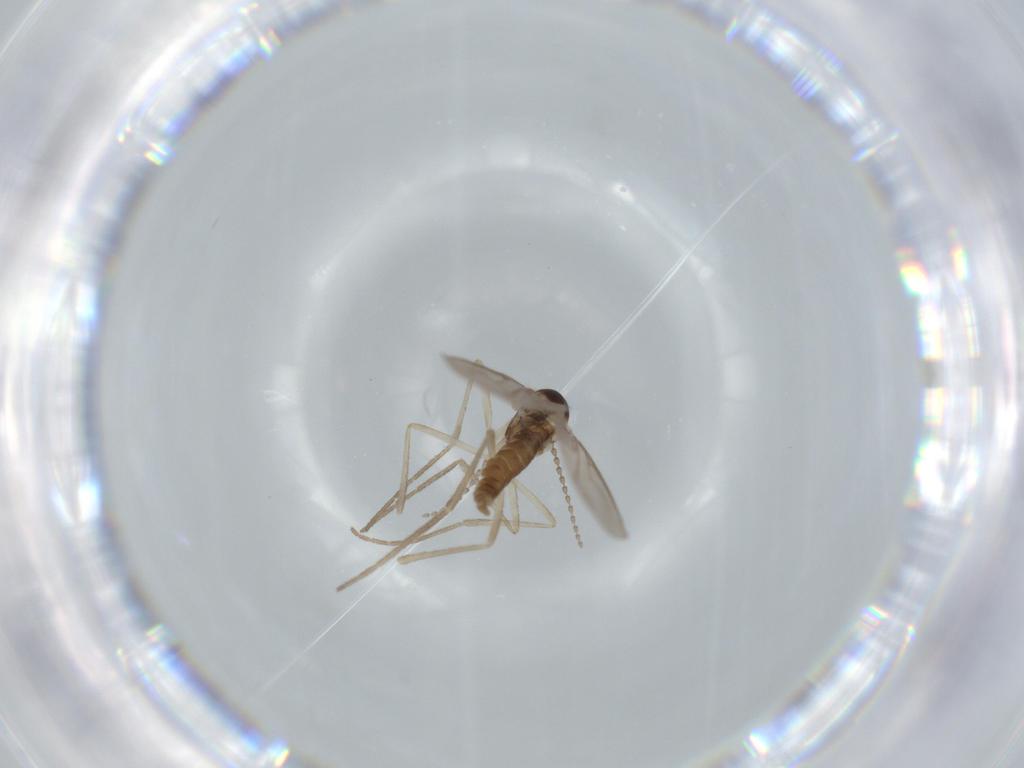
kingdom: Animalia
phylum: Arthropoda
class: Insecta
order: Diptera
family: Cecidomyiidae
